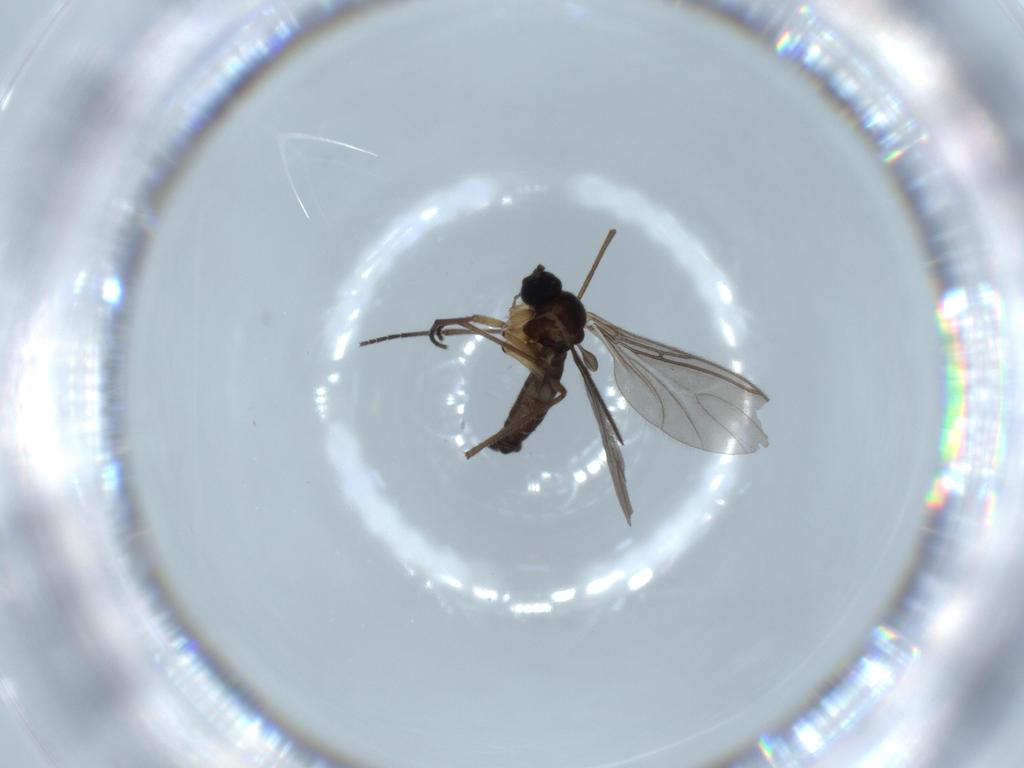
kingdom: Animalia
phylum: Arthropoda
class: Insecta
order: Diptera
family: Sciaridae
